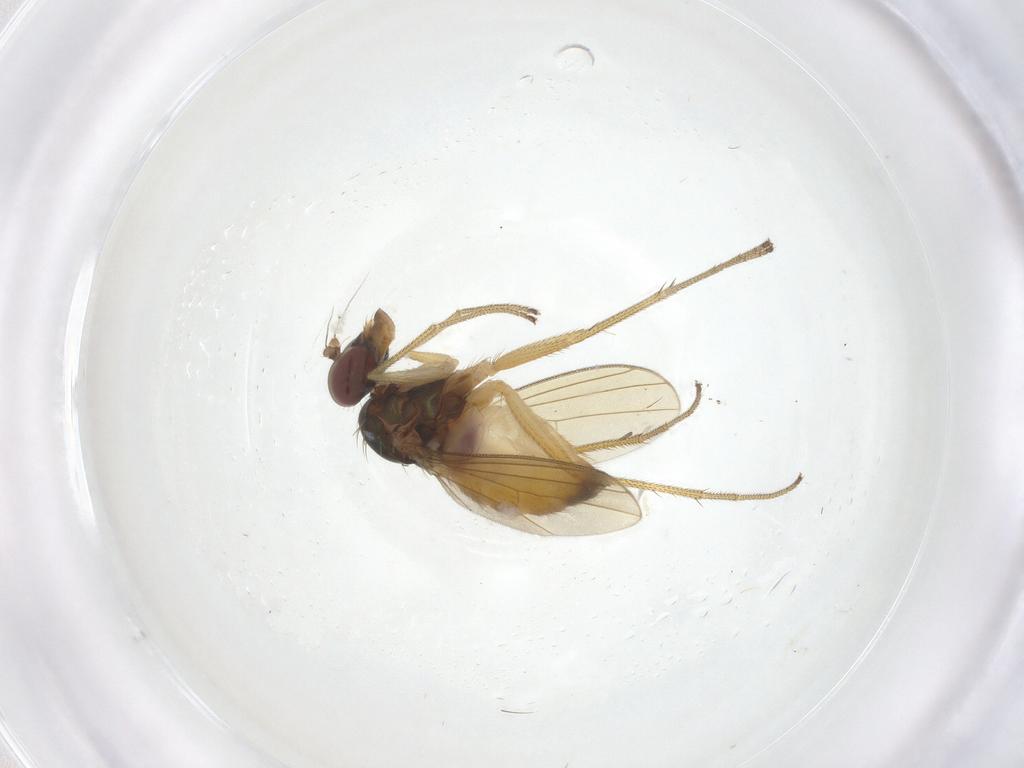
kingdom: Animalia
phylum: Arthropoda
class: Insecta
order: Diptera
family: Dolichopodidae
